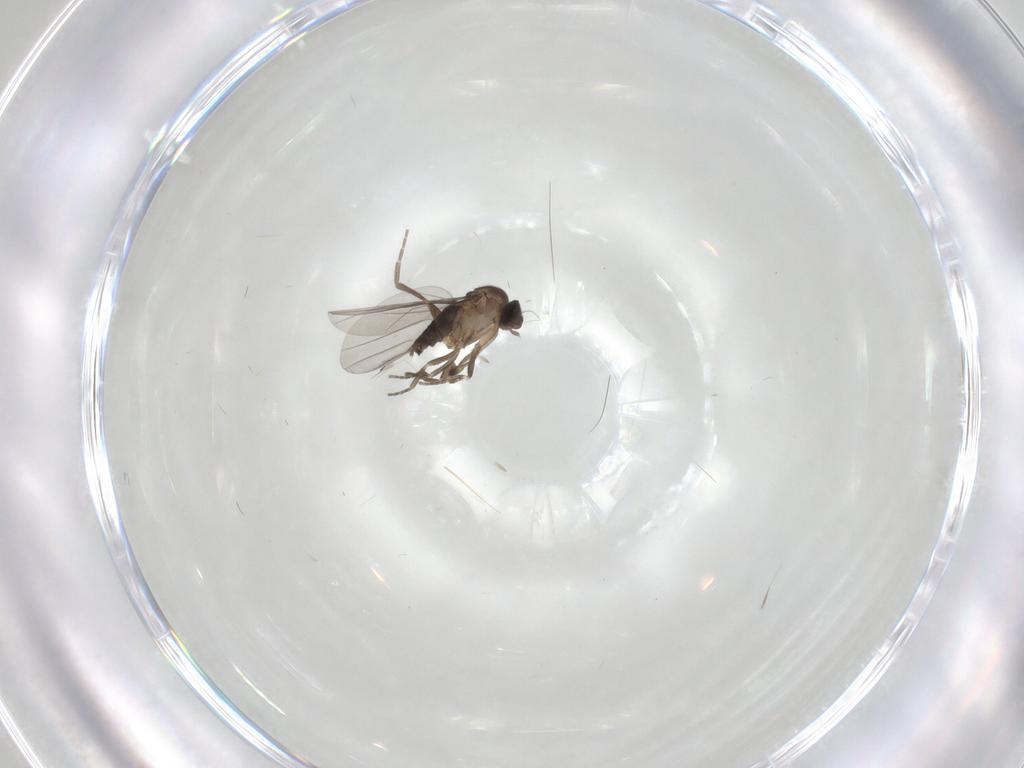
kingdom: Animalia
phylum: Arthropoda
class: Insecta
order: Diptera
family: Phoridae
